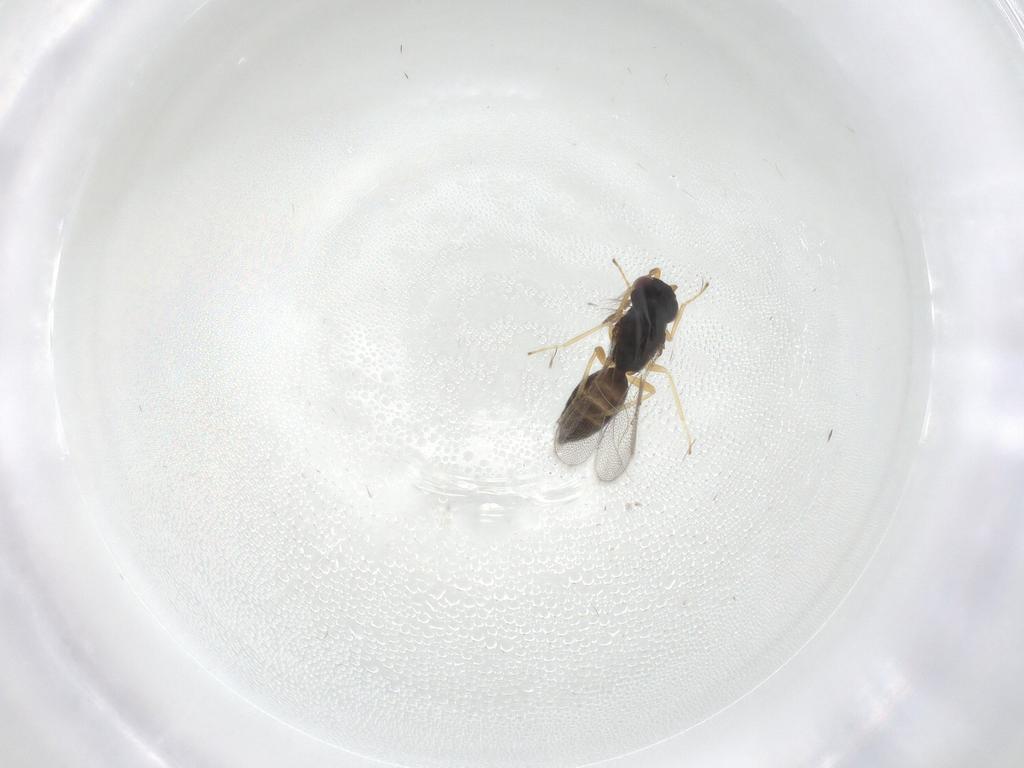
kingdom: Animalia
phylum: Arthropoda
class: Insecta
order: Hymenoptera
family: Eulophidae
